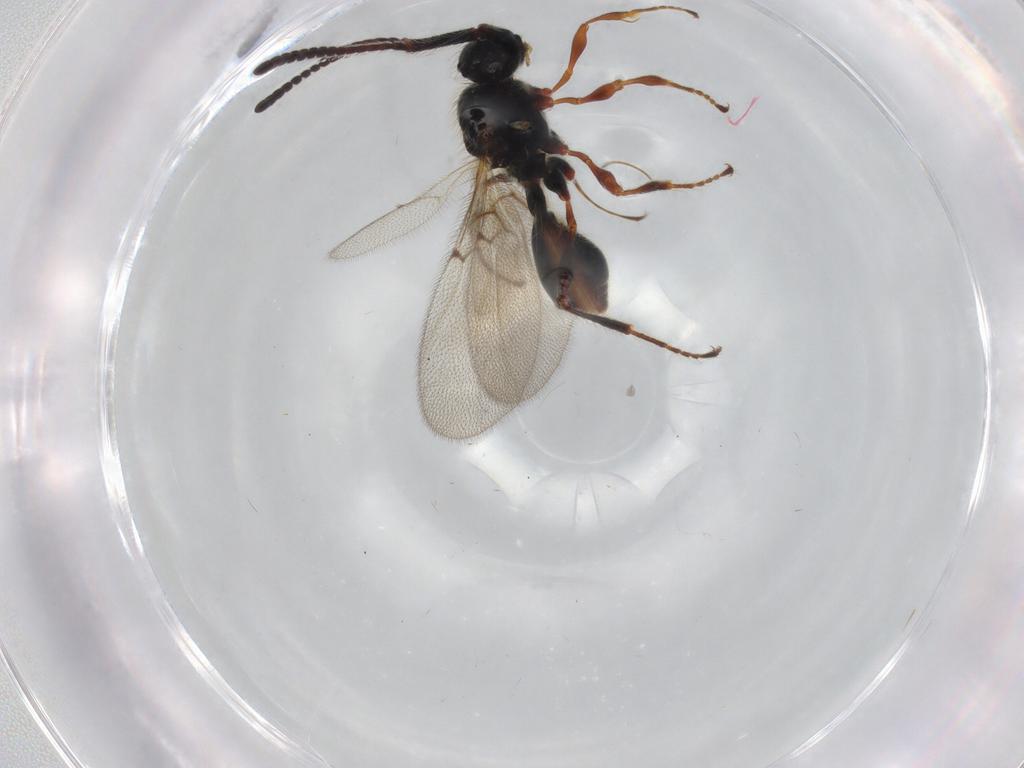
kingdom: Animalia
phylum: Arthropoda
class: Insecta
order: Hymenoptera
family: Diapriidae
